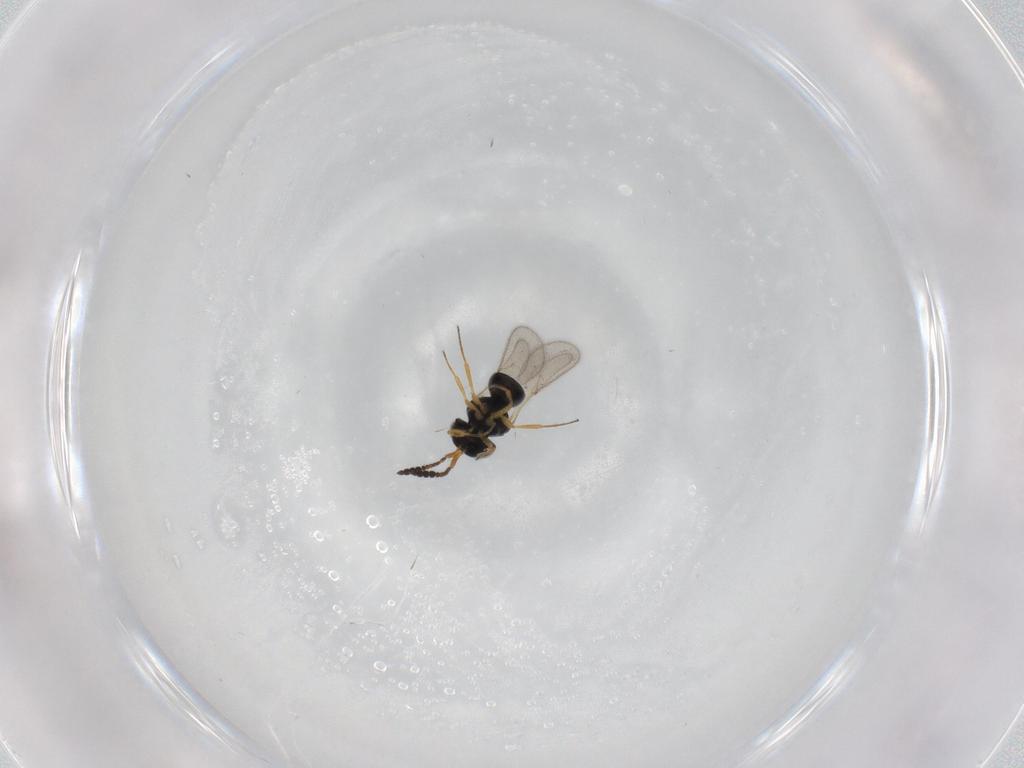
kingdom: Animalia
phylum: Arthropoda
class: Insecta
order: Hymenoptera
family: Scelionidae
